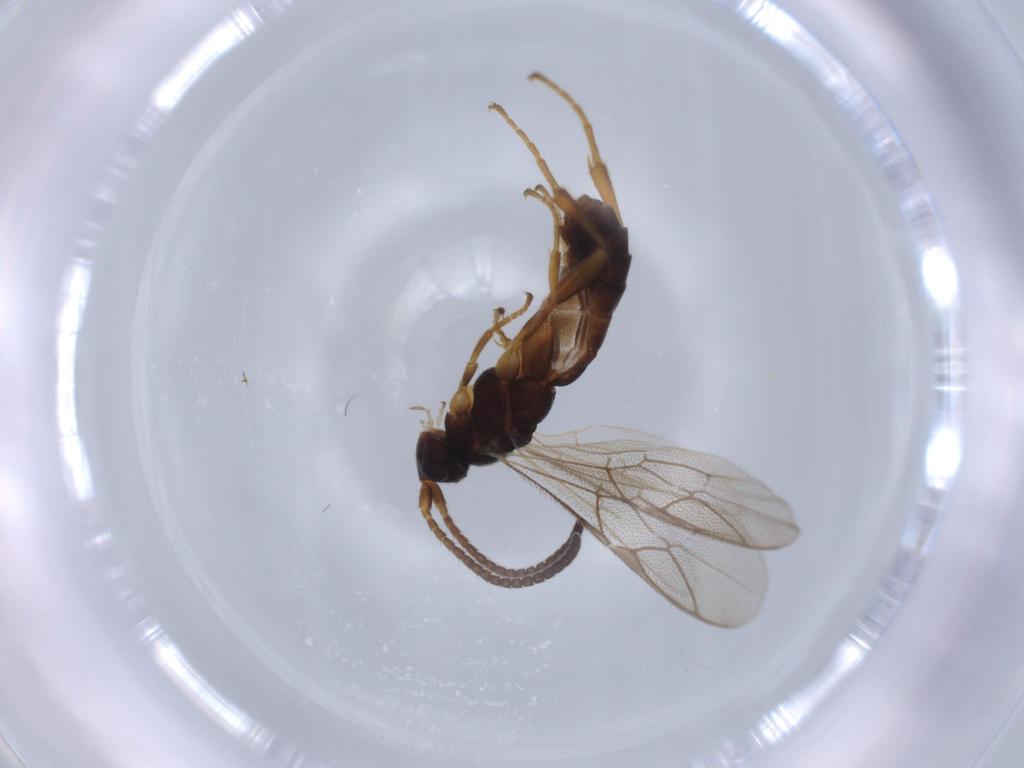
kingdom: Animalia
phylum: Arthropoda
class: Insecta
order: Hymenoptera
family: Ichneumonidae
